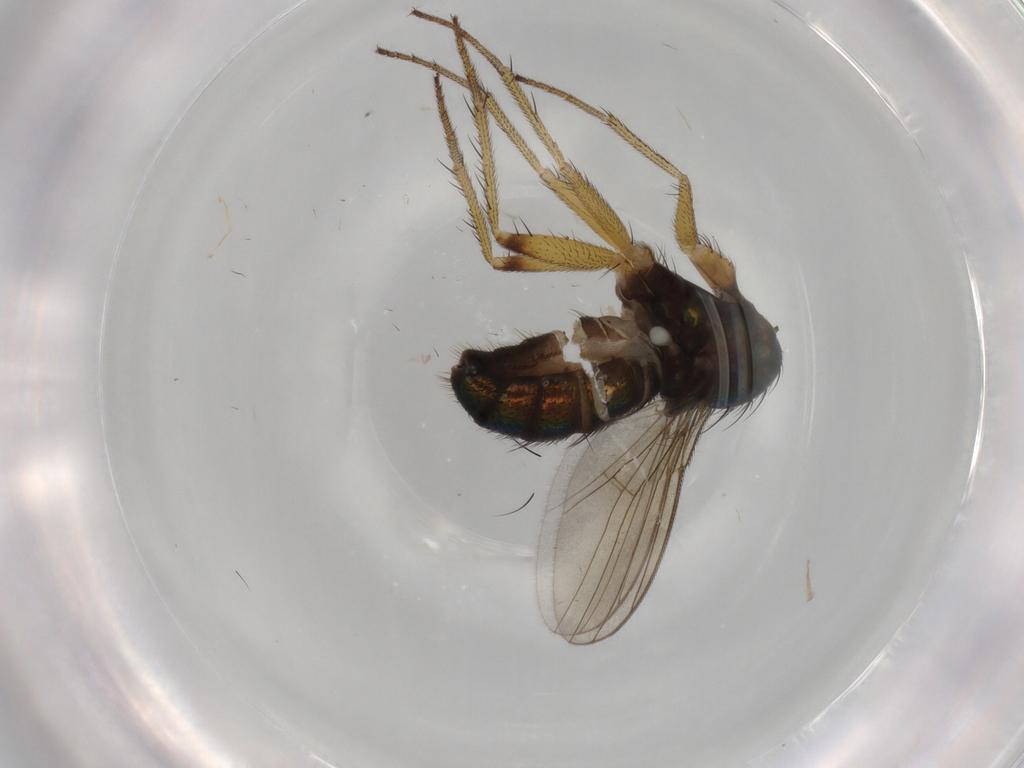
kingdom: Animalia
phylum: Arthropoda
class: Insecta
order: Diptera
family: Dolichopodidae
